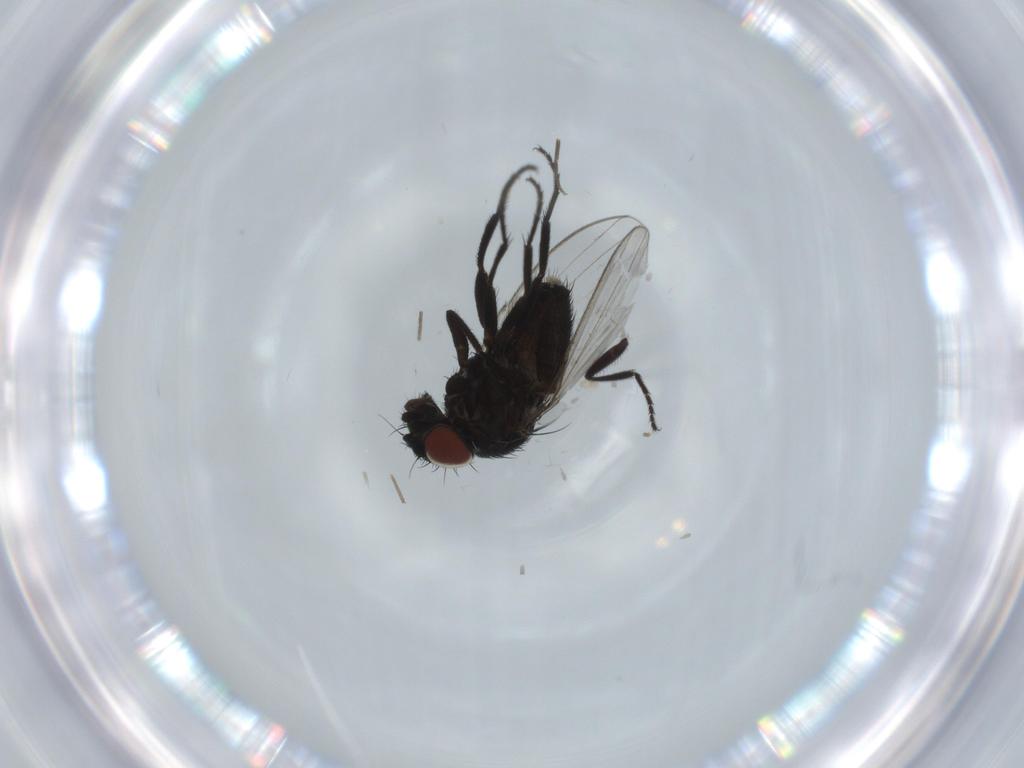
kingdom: Animalia
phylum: Arthropoda
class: Insecta
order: Diptera
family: Milichiidae
